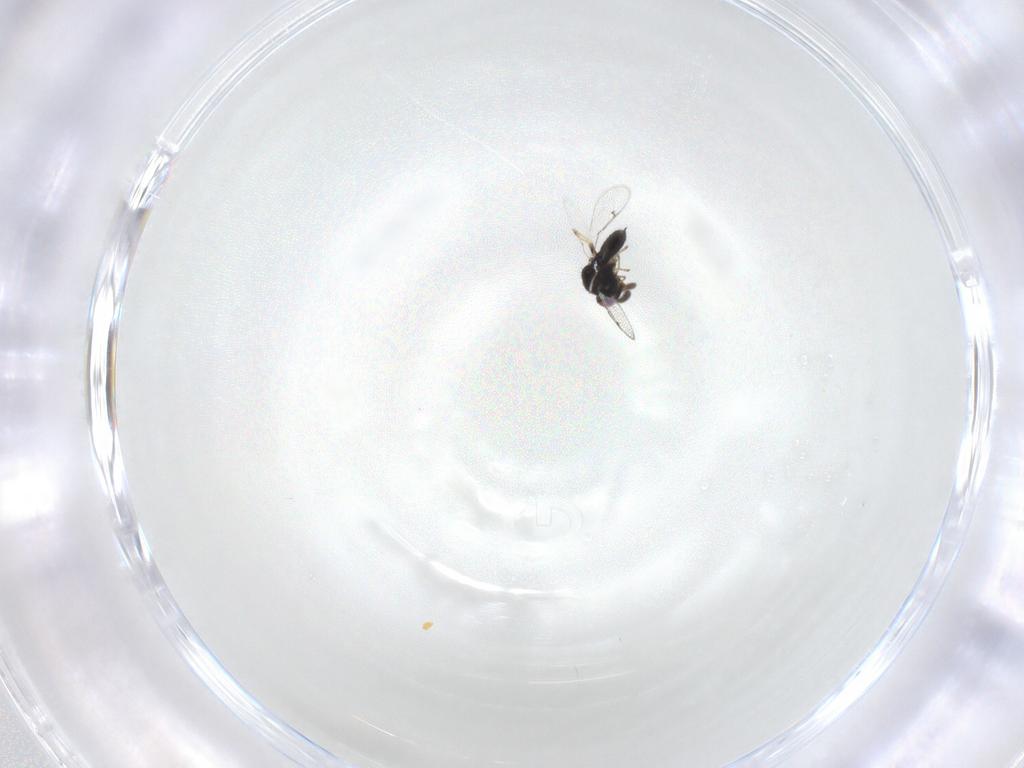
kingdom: Animalia
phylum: Arthropoda
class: Insecta
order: Hymenoptera
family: Pteromalidae
